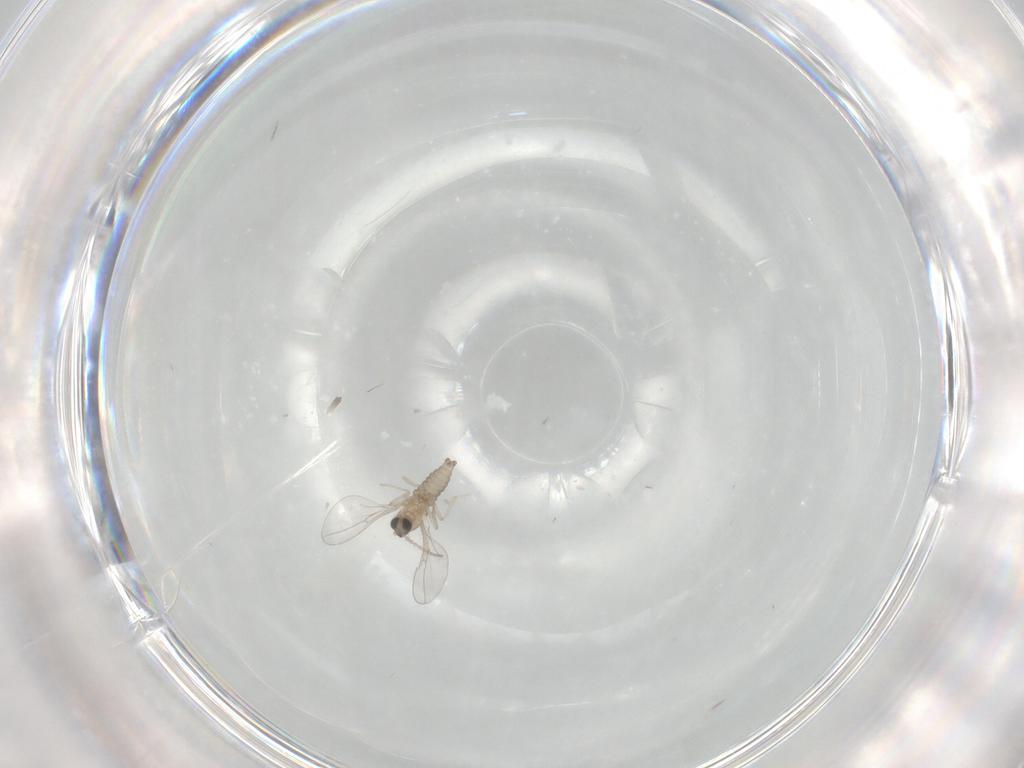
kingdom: Animalia
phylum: Arthropoda
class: Insecta
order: Diptera
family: Cecidomyiidae
